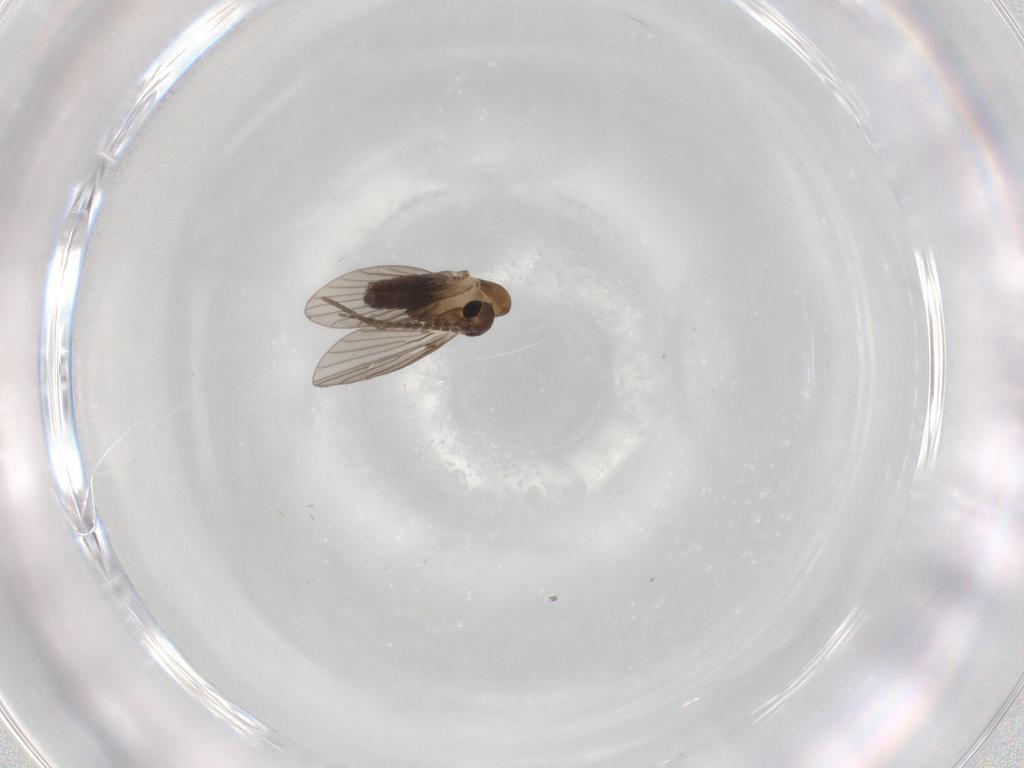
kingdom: Animalia
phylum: Arthropoda
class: Insecta
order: Diptera
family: Psychodidae
